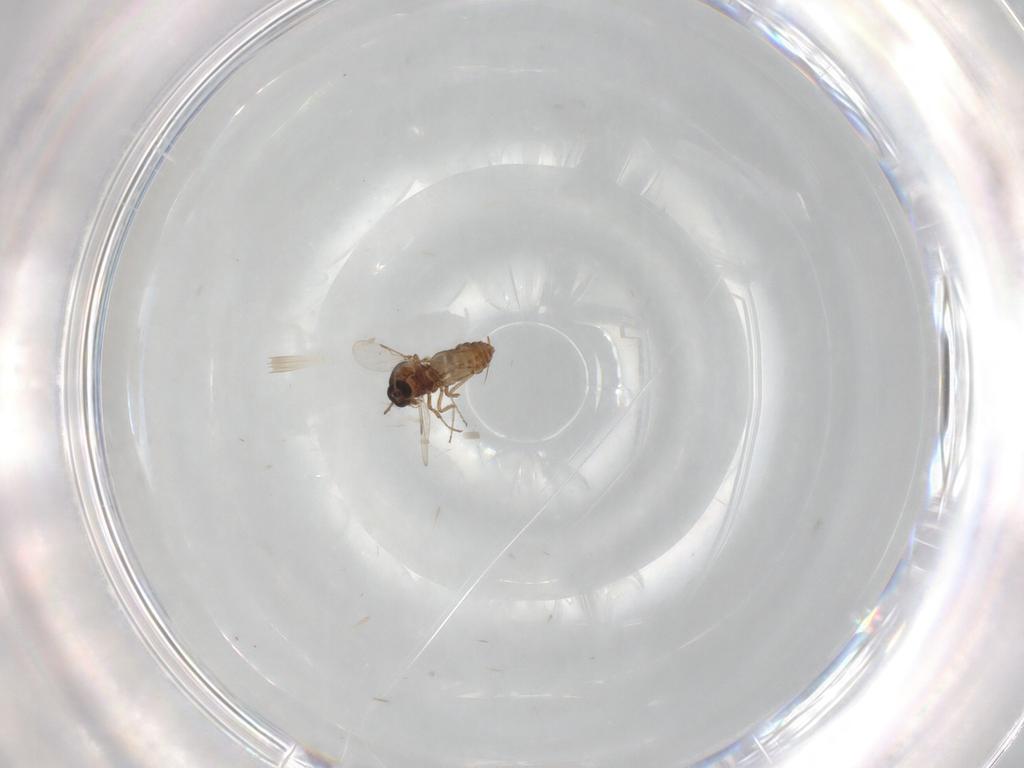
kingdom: Animalia
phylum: Arthropoda
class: Insecta
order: Diptera
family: Ceratopogonidae
